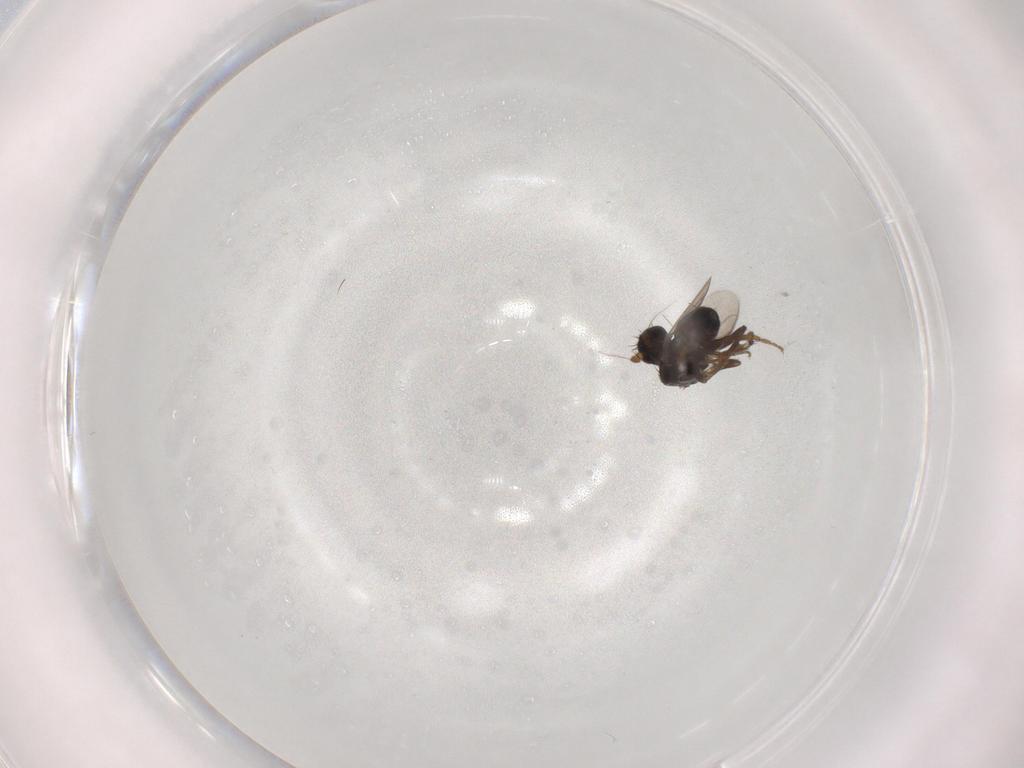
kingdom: Animalia
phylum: Arthropoda
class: Insecta
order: Diptera
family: Sphaeroceridae
